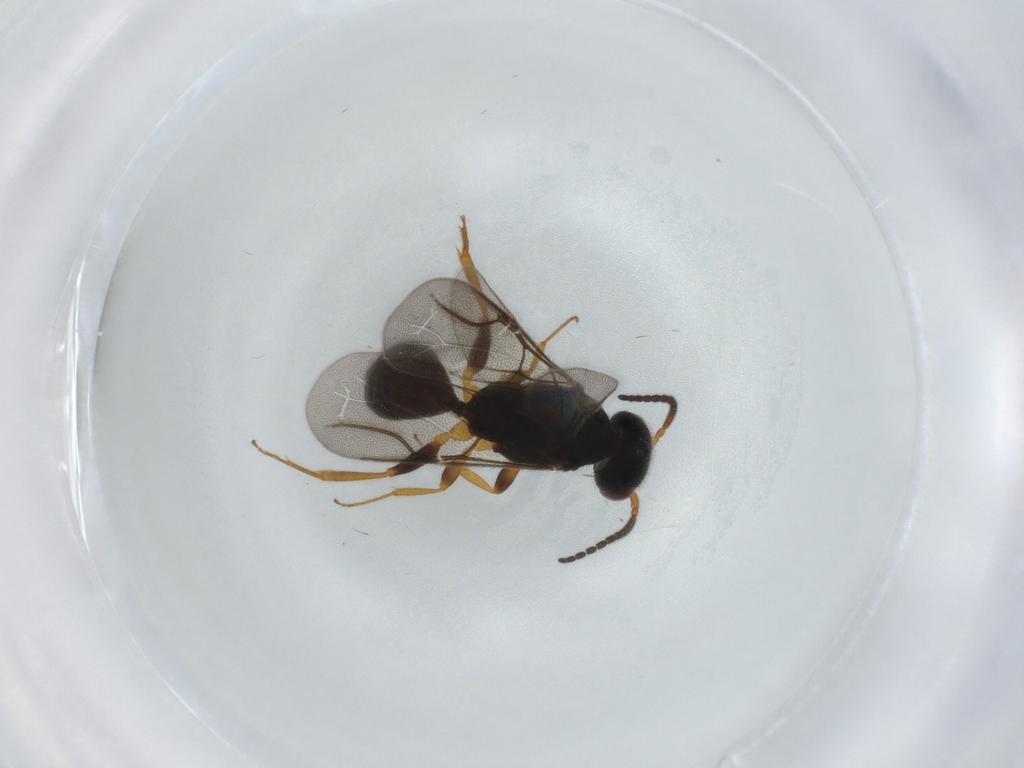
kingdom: Animalia
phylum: Arthropoda
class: Insecta
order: Hymenoptera
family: Bethylidae
